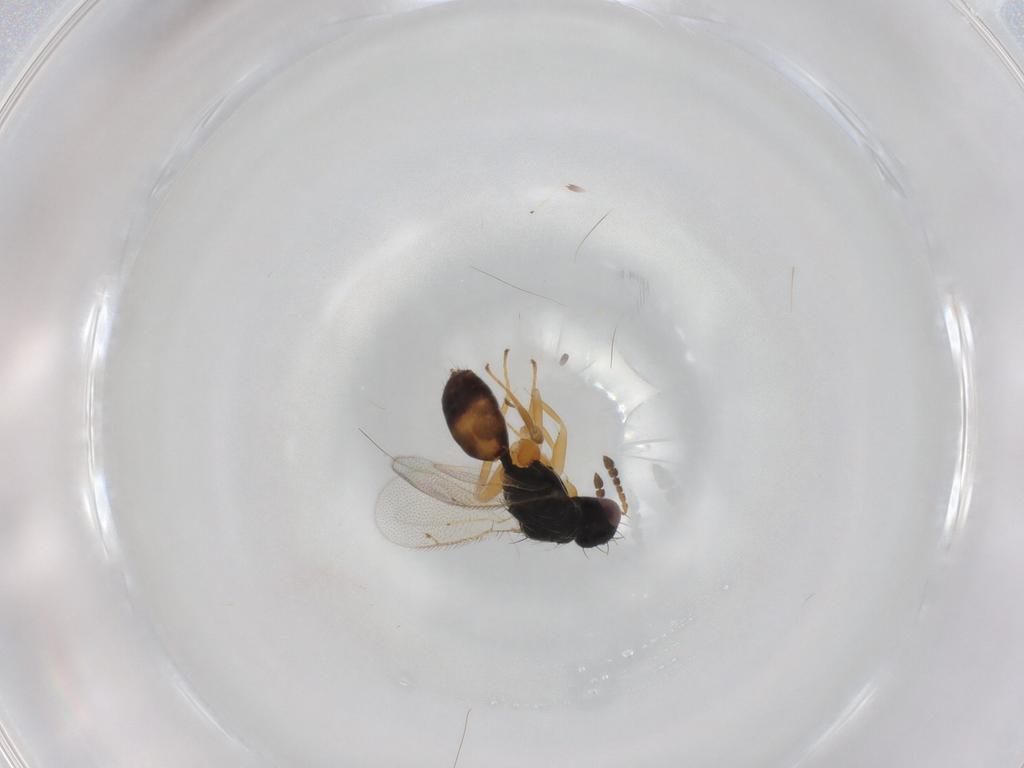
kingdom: Animalia
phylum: Arthropoda
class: Insecta
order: Hymenoptera
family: Eulophidae
